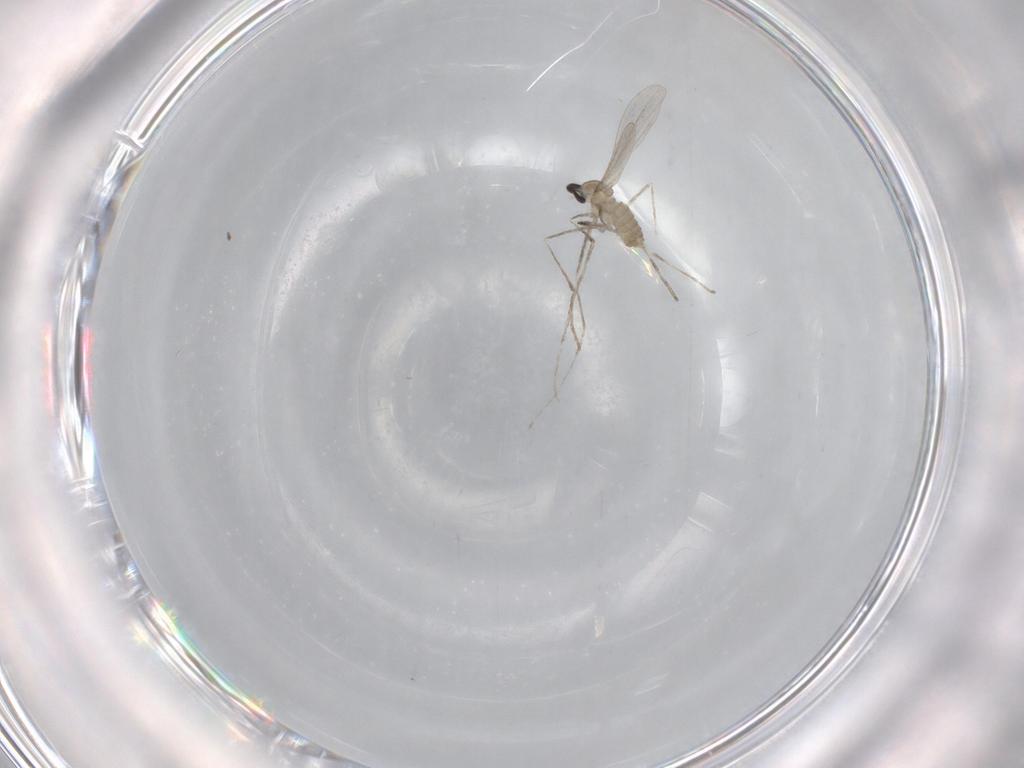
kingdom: Animalia
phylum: Arthropoda
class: Insecta
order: Diptera
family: Cecidomyiidae
